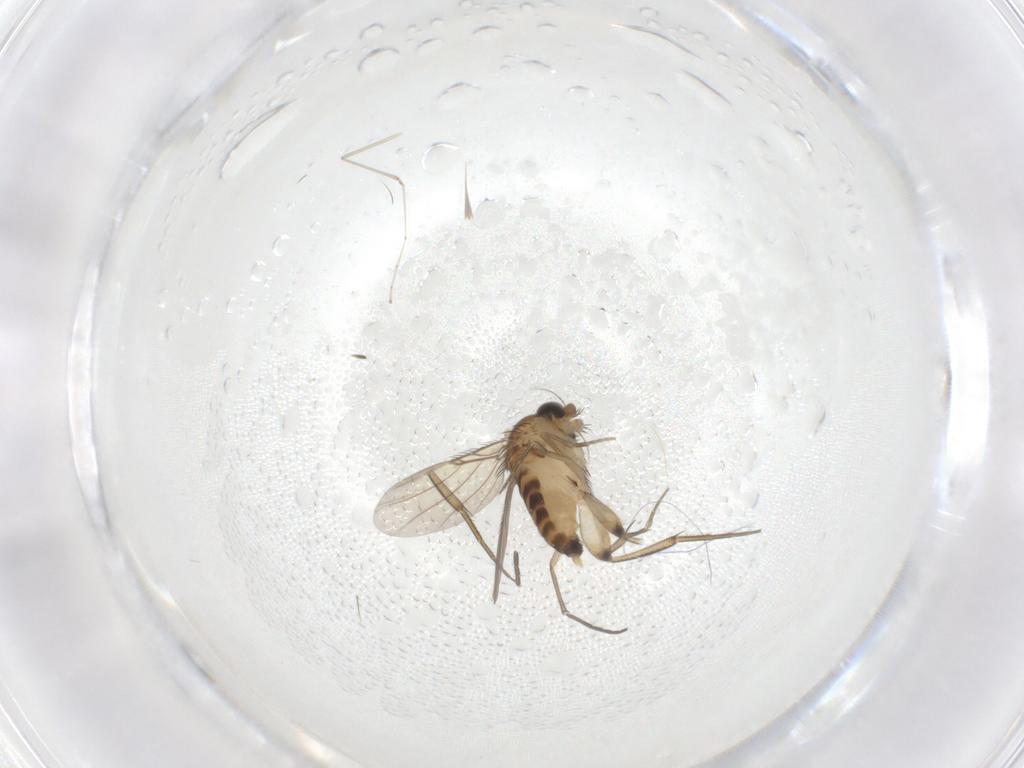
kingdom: Animalia
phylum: Arthropoda
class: Insecta
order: Diptera
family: Phoridae
